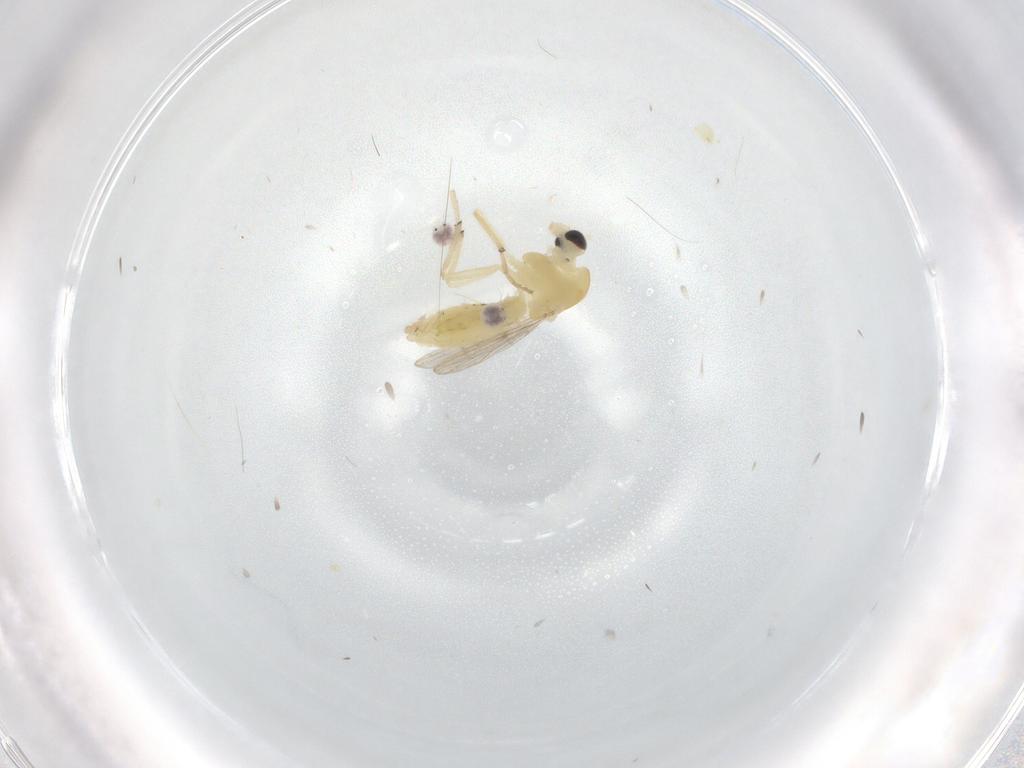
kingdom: Animalia
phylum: Arthropoda
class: Insecta
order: Diptera
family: Chironomidae
